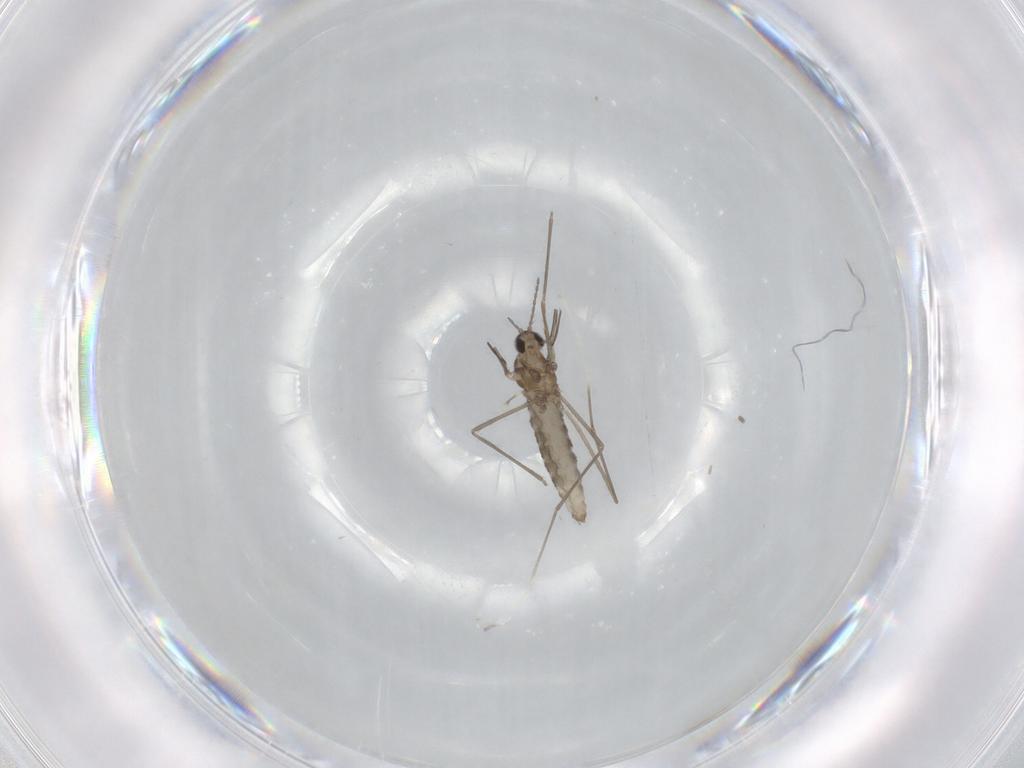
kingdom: Animalia
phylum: Arthropoda
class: Insecta
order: Diptera
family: Cecidomyiidae
